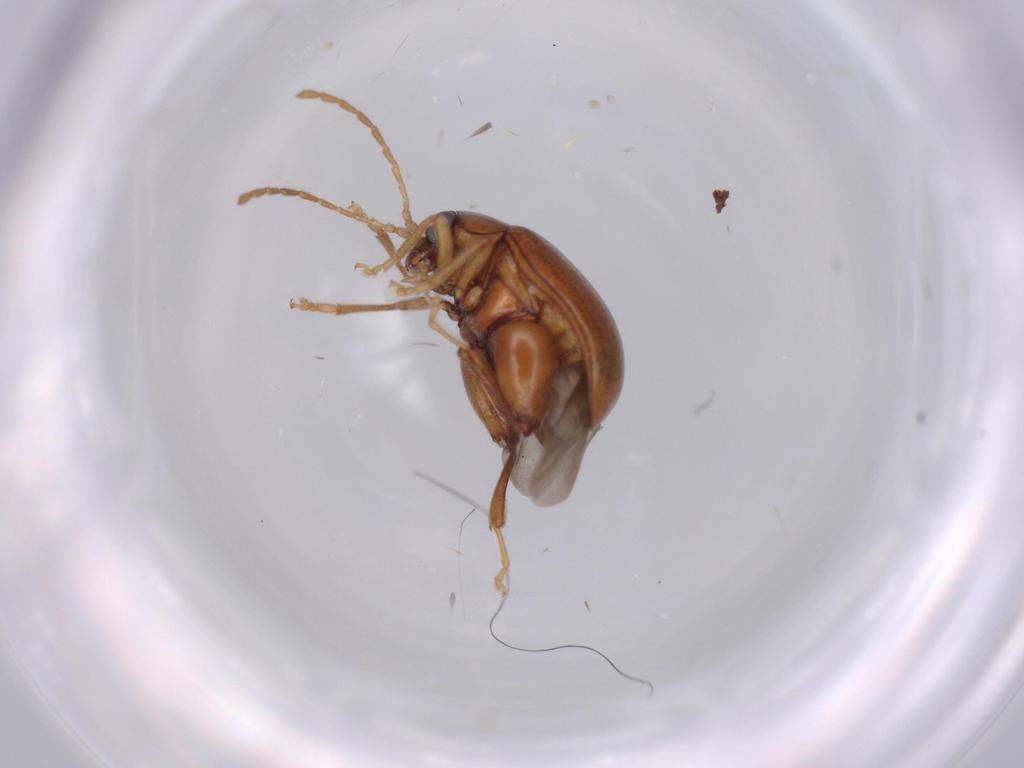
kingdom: Animalia
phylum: Arthropoda
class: Insecta
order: Coleoptera
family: Chrysomelidae
